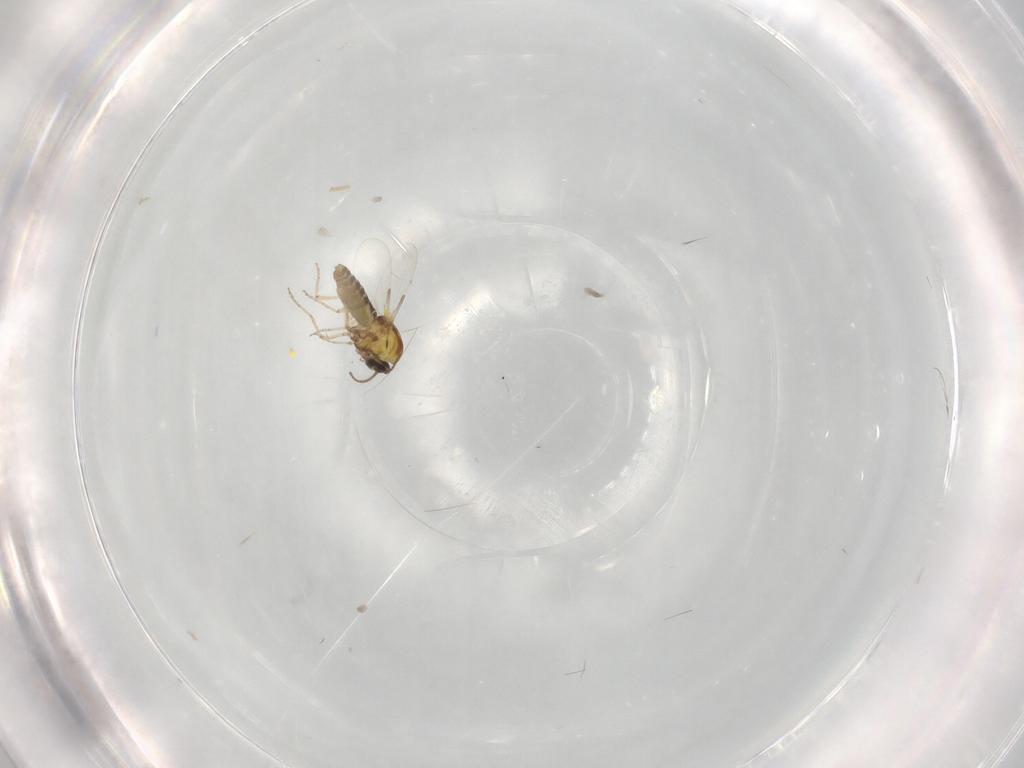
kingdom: Animalia
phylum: Arthropoda
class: Insecta
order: Diptera
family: Ceratopogonidae
